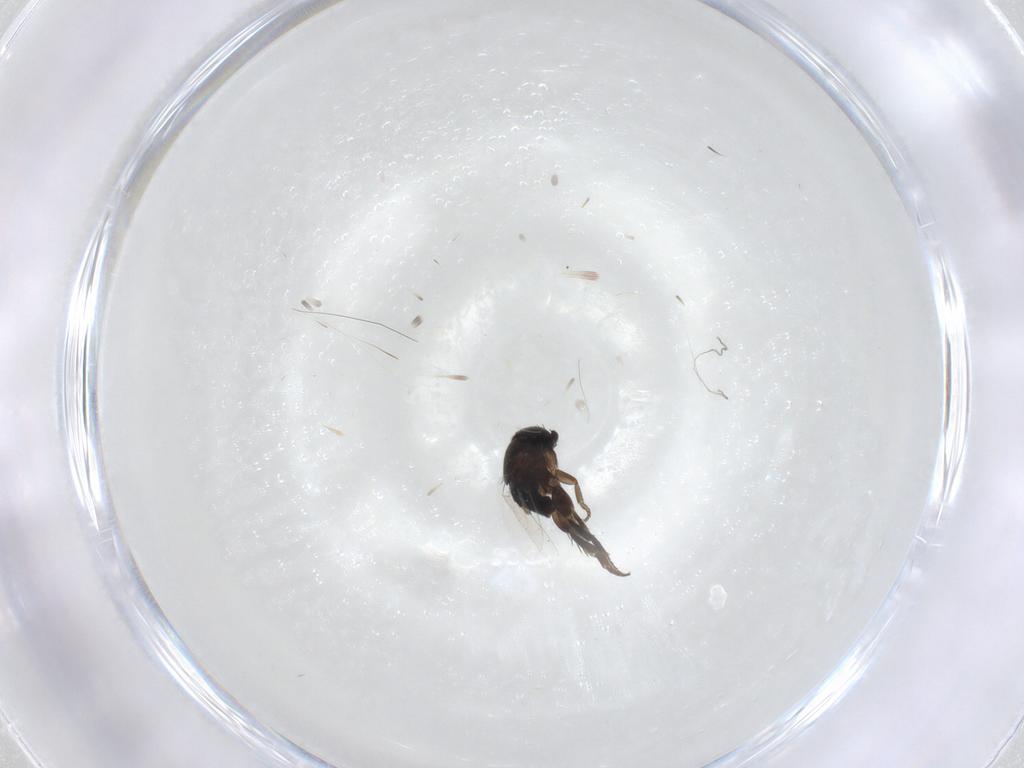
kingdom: Animalia
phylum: Arthropoda
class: Insecta
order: Diptera
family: Phoridae
